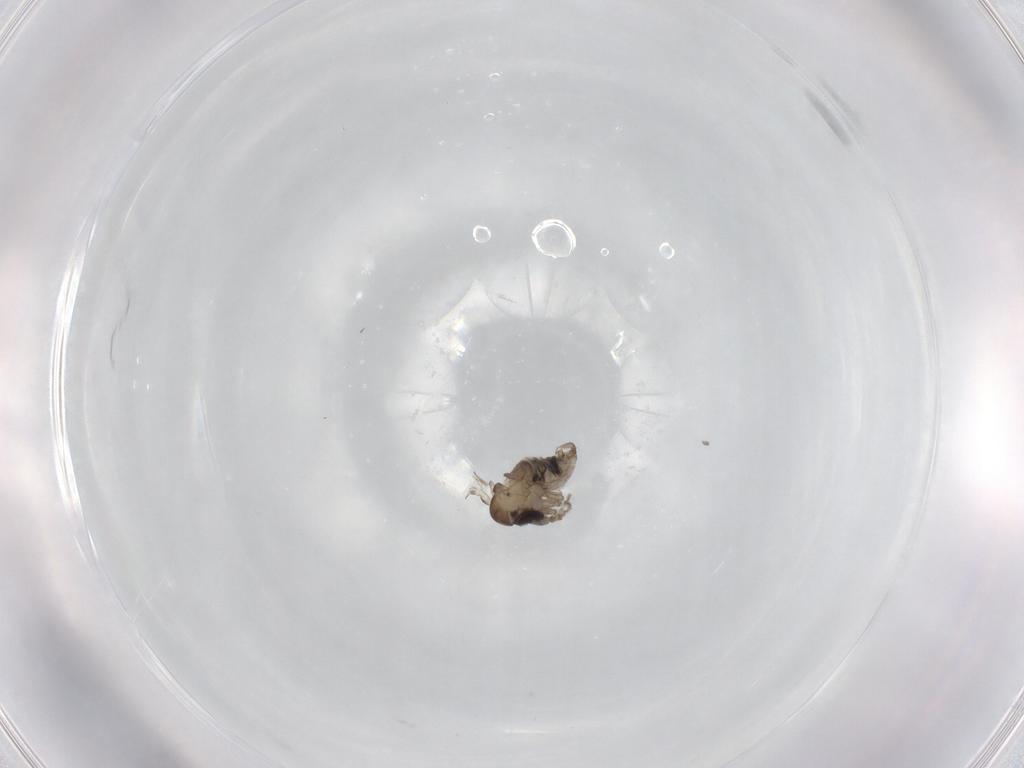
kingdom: Animalia
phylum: Arthropoda
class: Insecta
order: Diptera
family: Psychodidae
